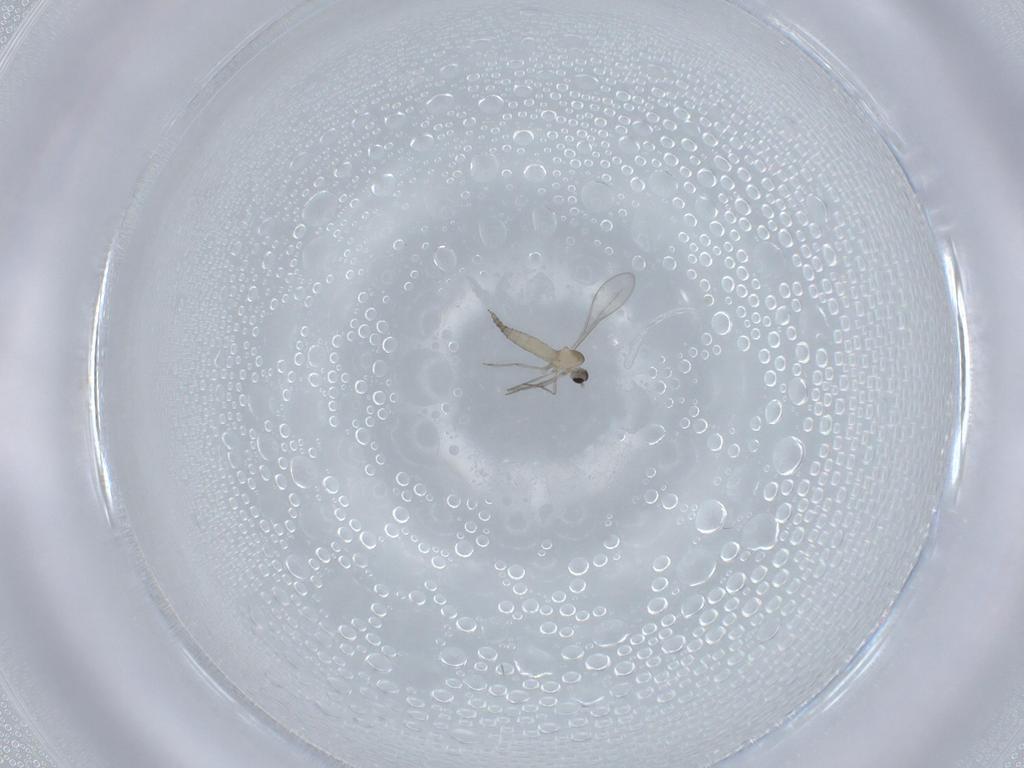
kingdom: Animalia
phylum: Arthropoda
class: Insecta
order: Diptera
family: Cecidomyiidae
